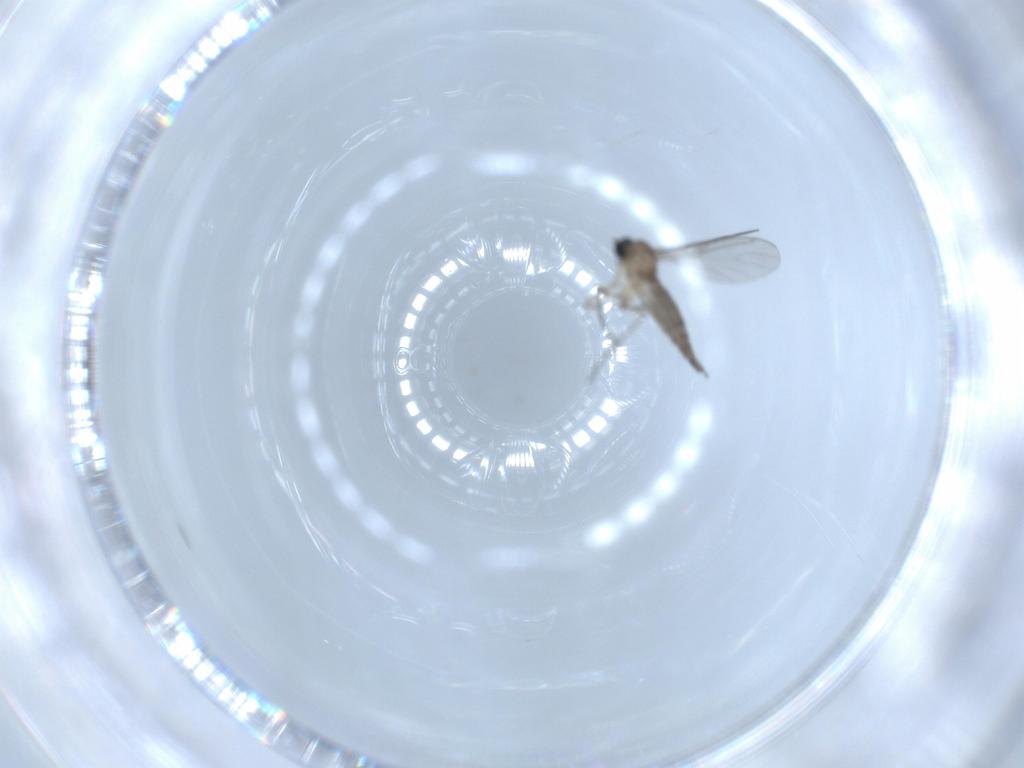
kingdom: Animalia
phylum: Arthropoda
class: Insecta
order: Diptera
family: Sciaridae
